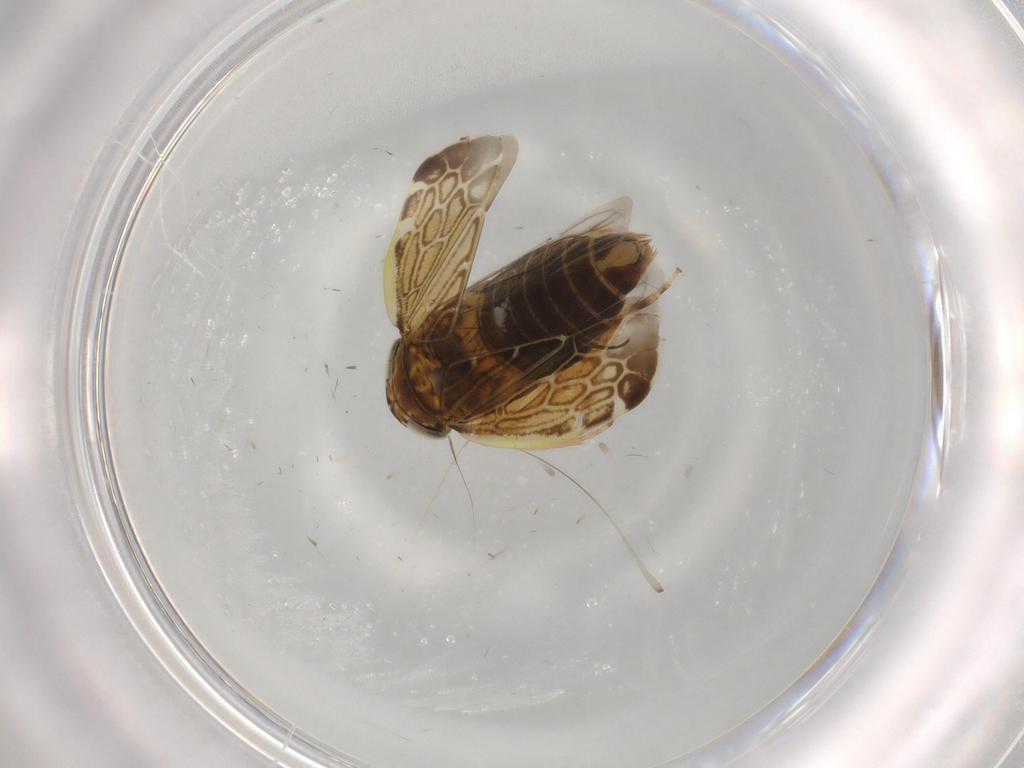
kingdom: Animalia
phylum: Arthropoda
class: Insecta
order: Hemiptera
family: Cicadellidae
